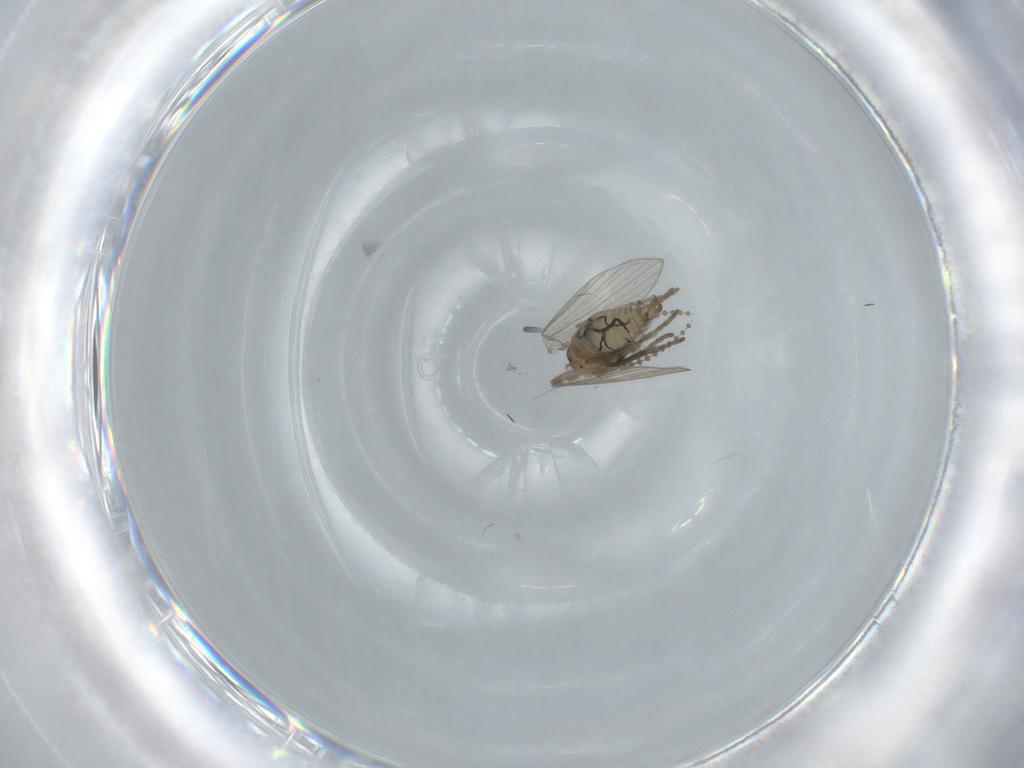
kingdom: Animalia
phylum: Arthropoda
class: Insecta
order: Diptera
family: Psychodidae
